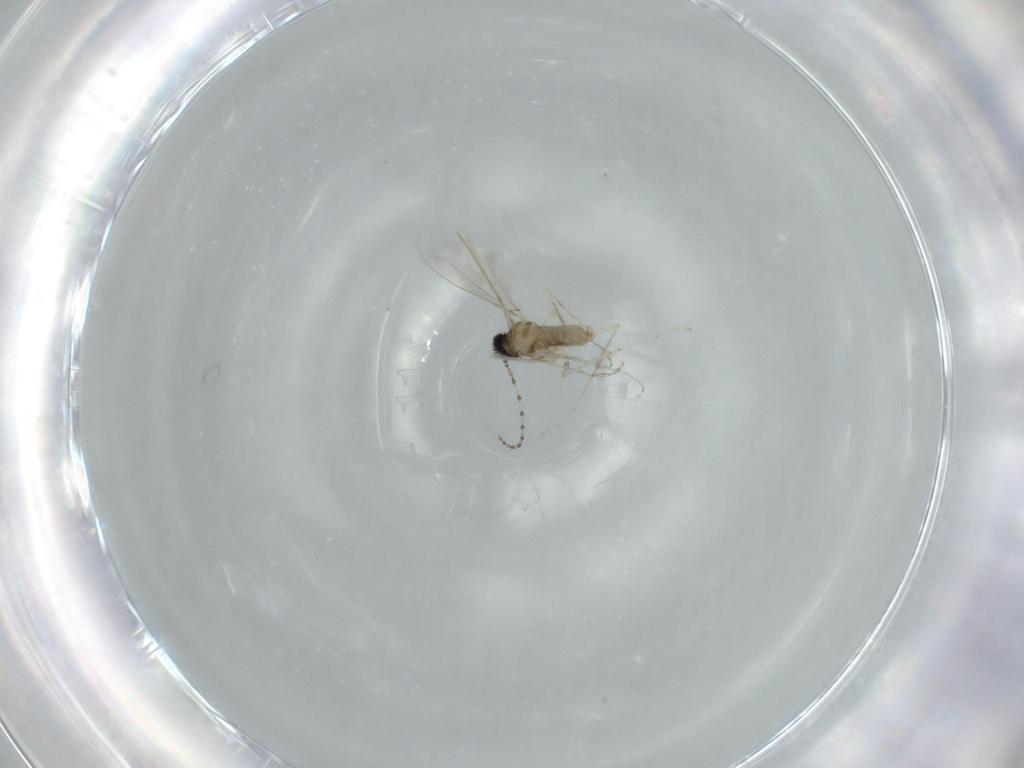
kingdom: Animalia
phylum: Arthropoda
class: Insecta
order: Diptera
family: Cecidomyiidae
